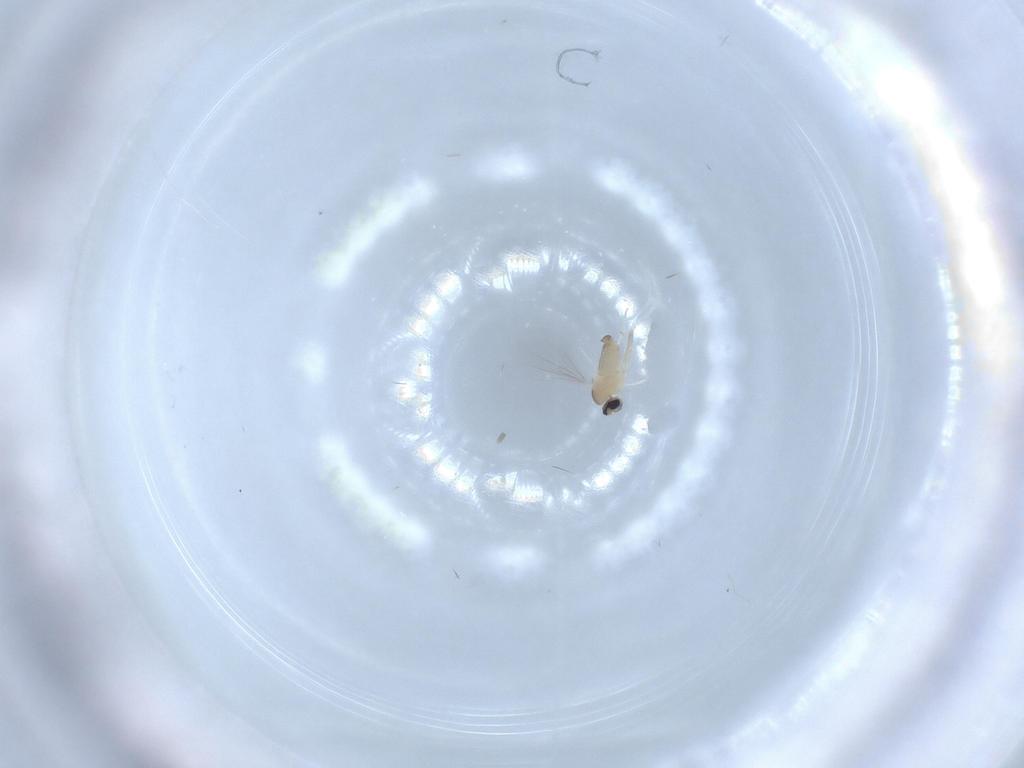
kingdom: Animalia
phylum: Arthropoda
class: Insecta
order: Diptera
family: Cecidomyiidae
